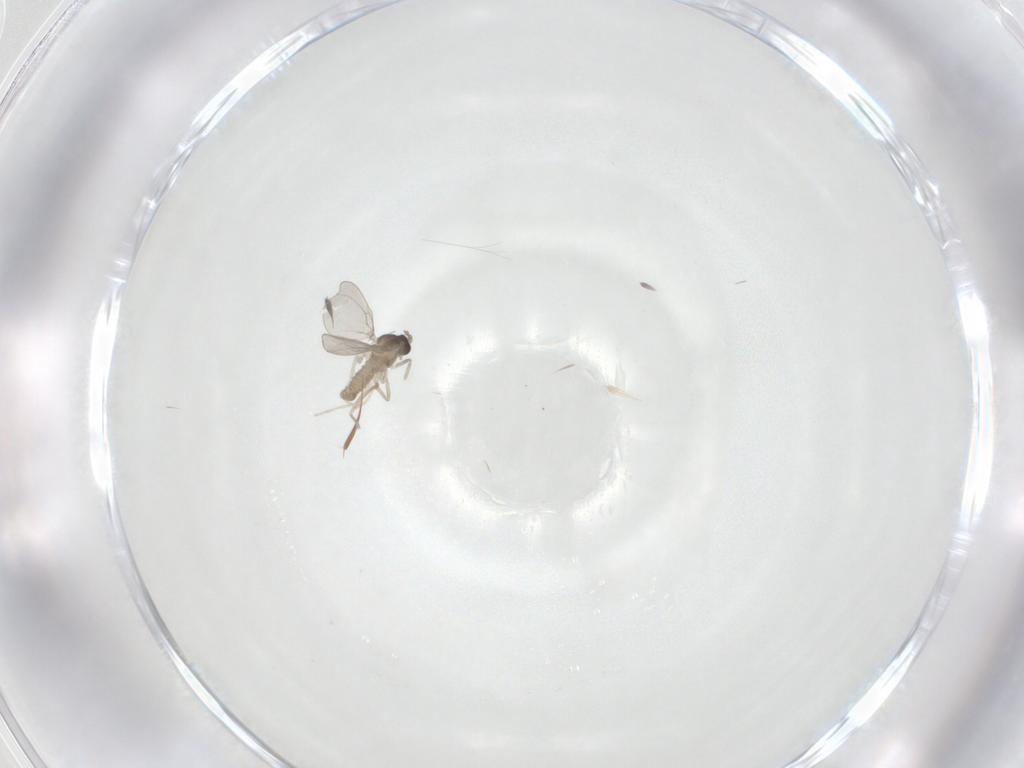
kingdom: Animalia
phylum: Arthropoda
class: Insecta
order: Diptera
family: Cecidomyiidae
